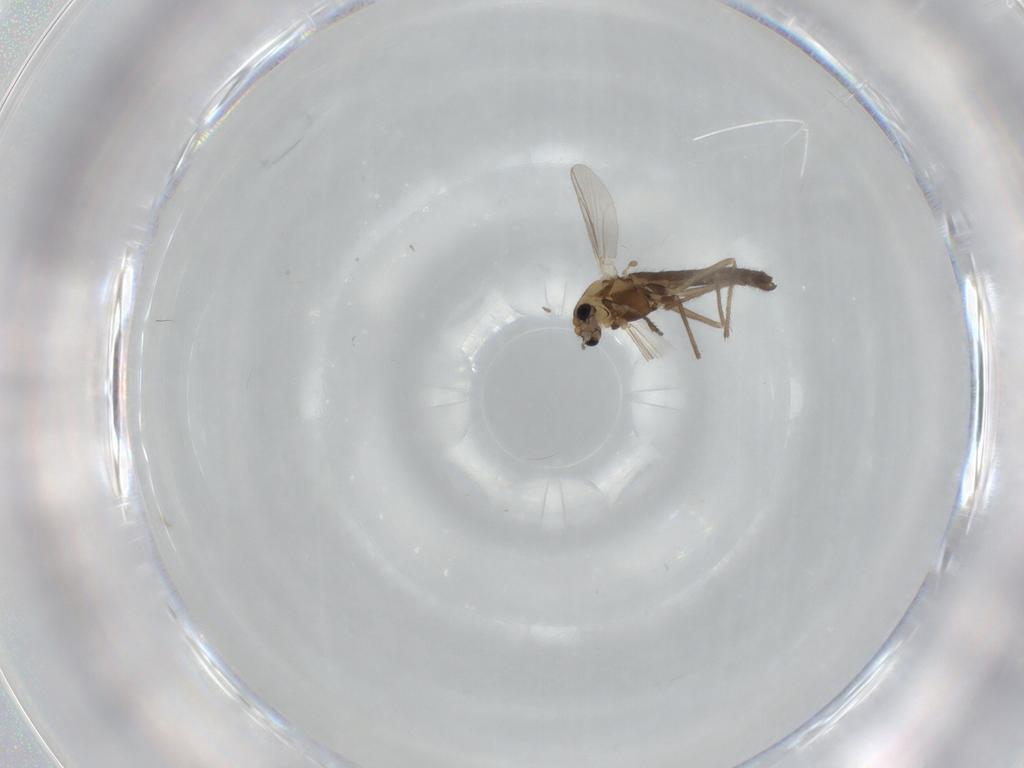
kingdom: Animalia
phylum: Arthropoda
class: Insecta
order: Diptera
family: Chironomidae
